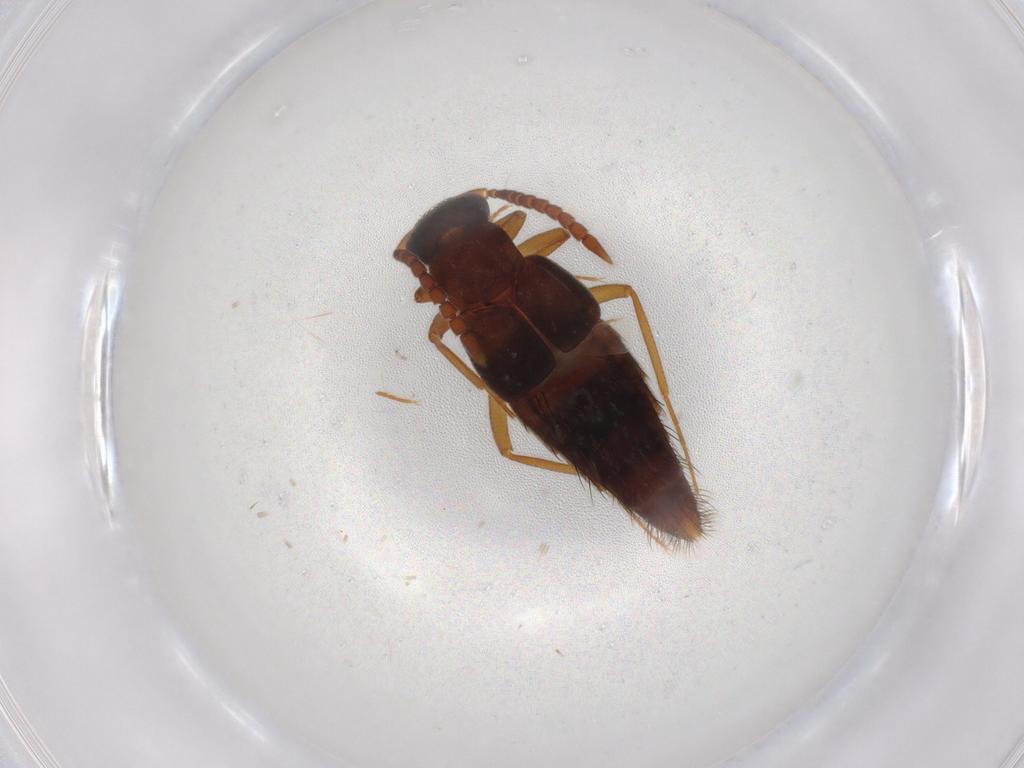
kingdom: Animalia
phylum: Arthropoda
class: Insecta
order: Coleoptera
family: Staphylinidae
